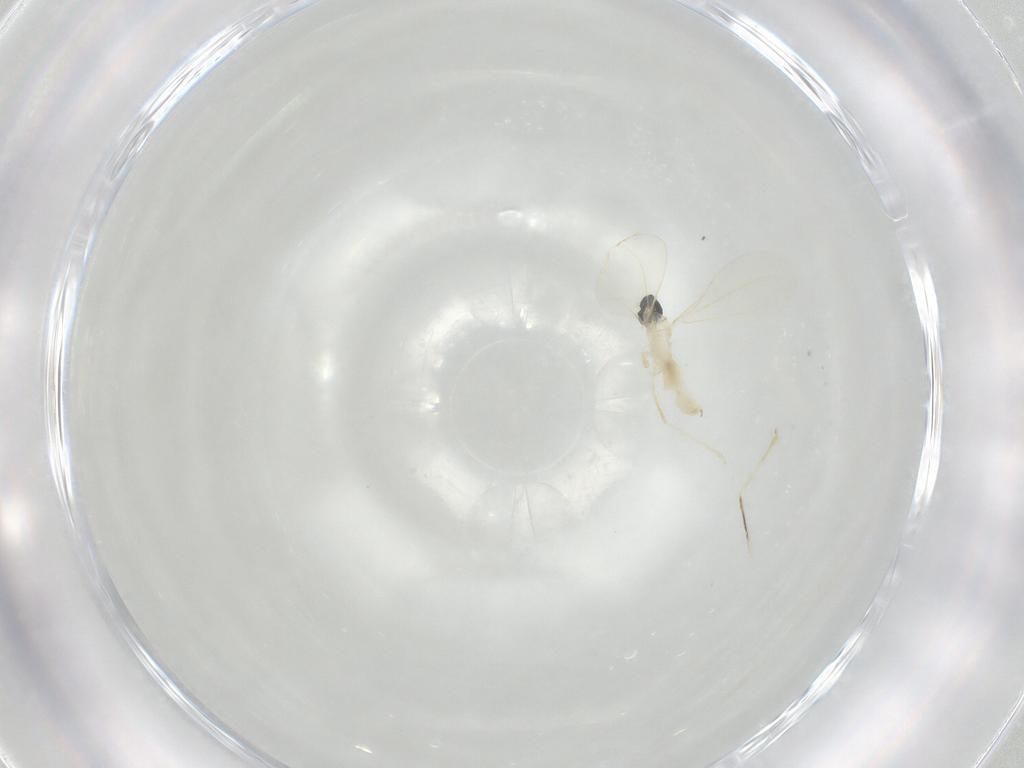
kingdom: Animalia
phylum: Arthropoda
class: Insecta
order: Diptera
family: Cecidomyiidae
